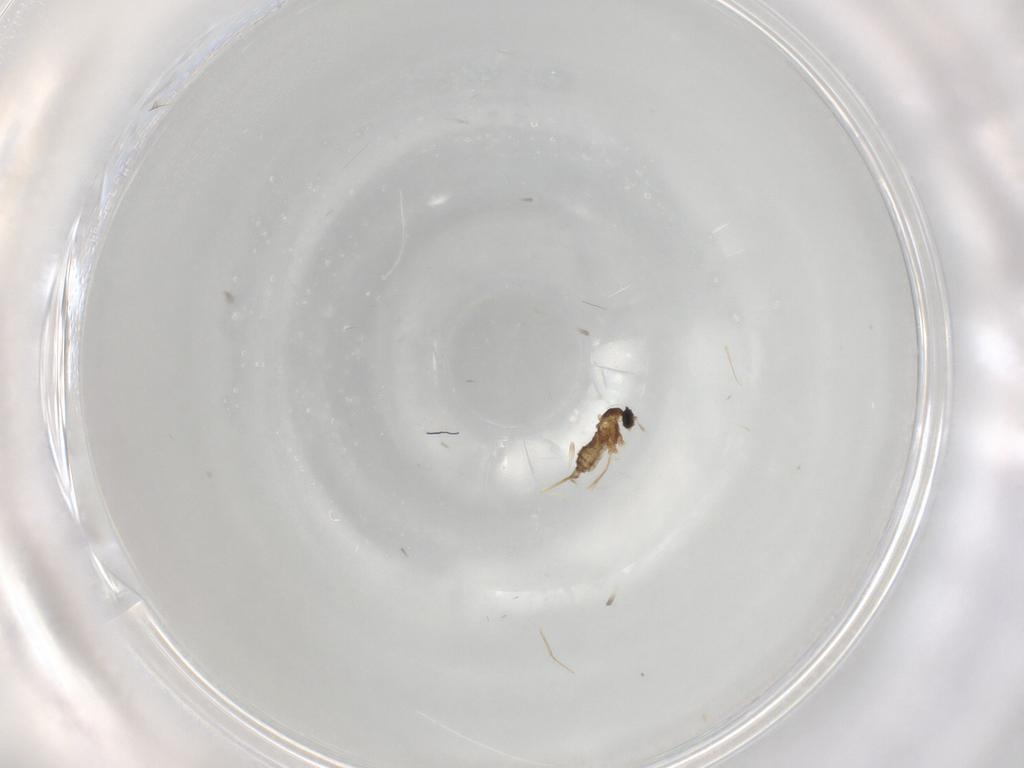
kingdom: Animalia
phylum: Arthropoda
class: Insecta
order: Diptera
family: Cecidomyiidae
